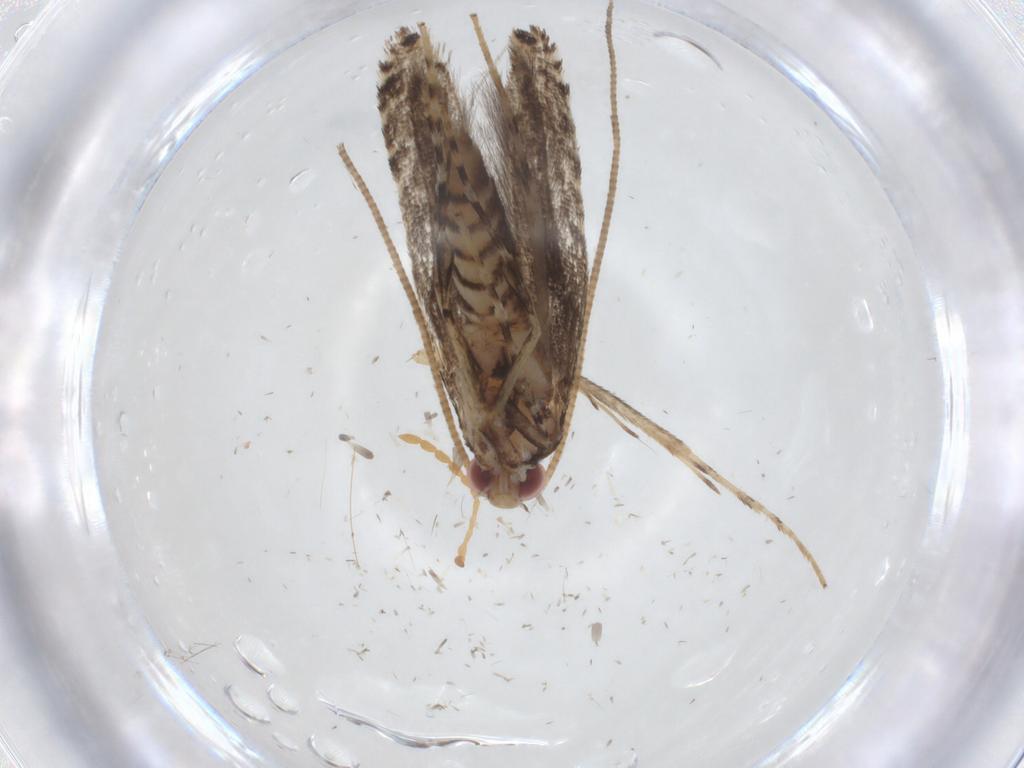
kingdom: Animalia
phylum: Arthropoda
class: Insecta
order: Lepidoptera
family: Gracillariidae
